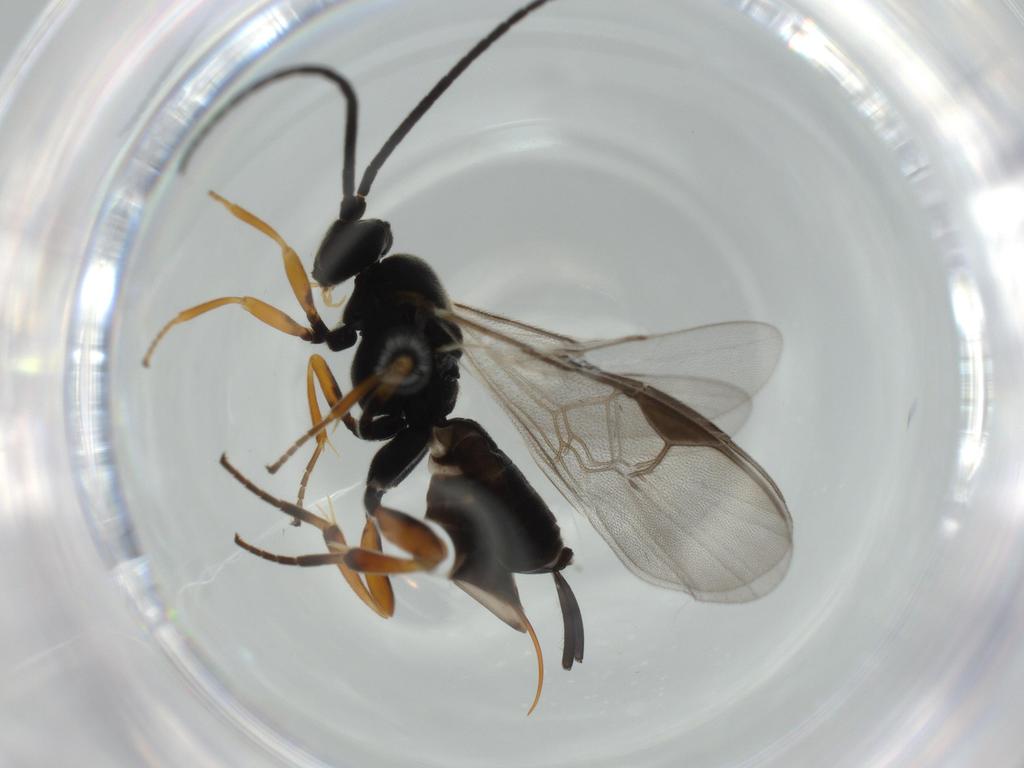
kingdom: Animalia
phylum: Arthropoda
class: Insecta
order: Hymenoptera
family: Braconidae
